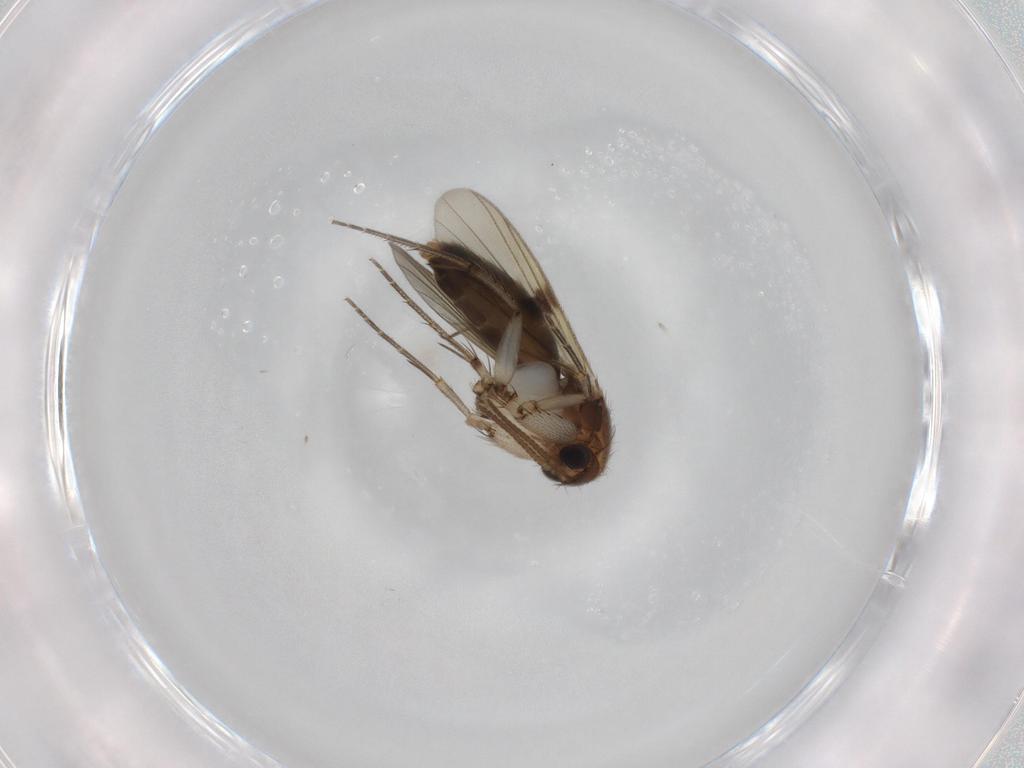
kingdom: Animalia
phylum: Arthropoda
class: Insecta
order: Diptera
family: Mycetophilidae
